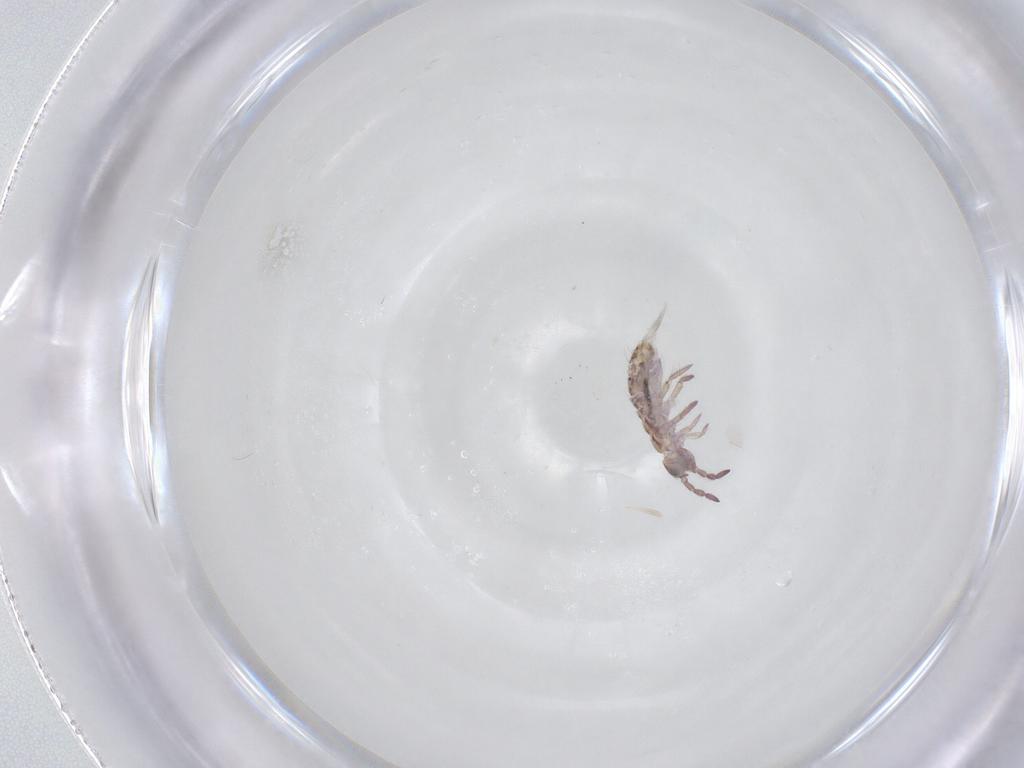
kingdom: Animalia
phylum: Arthropoda
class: Collembola
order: Entomobryomorpha
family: Isotomidae
